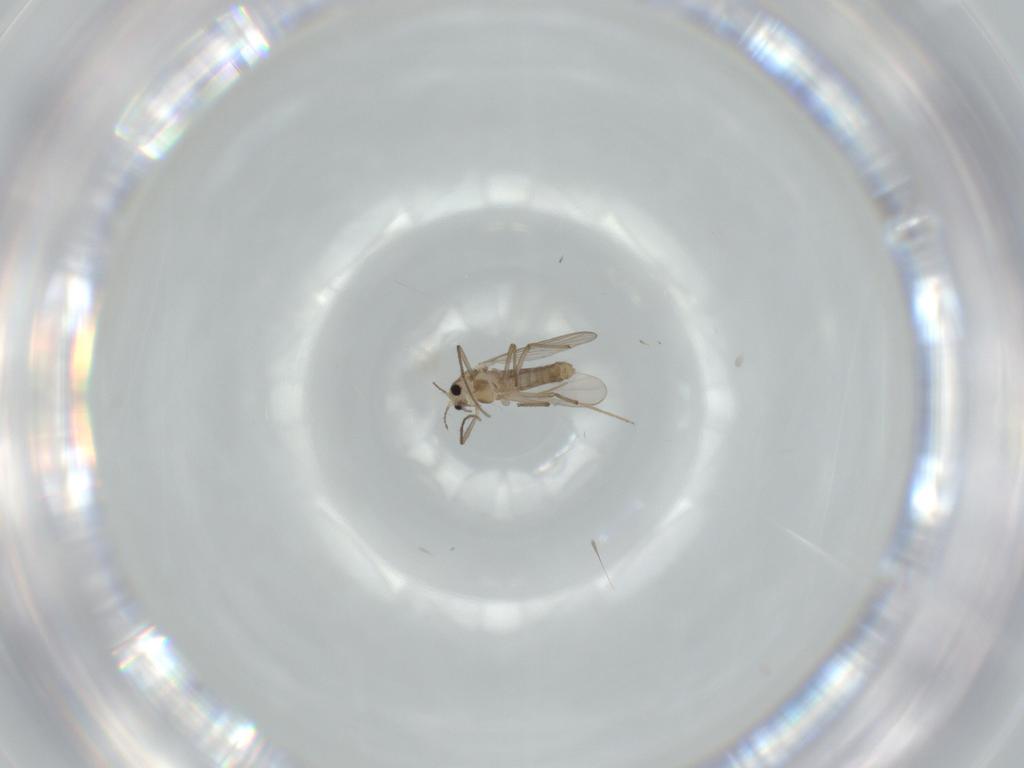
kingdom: Animalia
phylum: Arthropoda
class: Insecta
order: Diptera
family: Chironomidae
